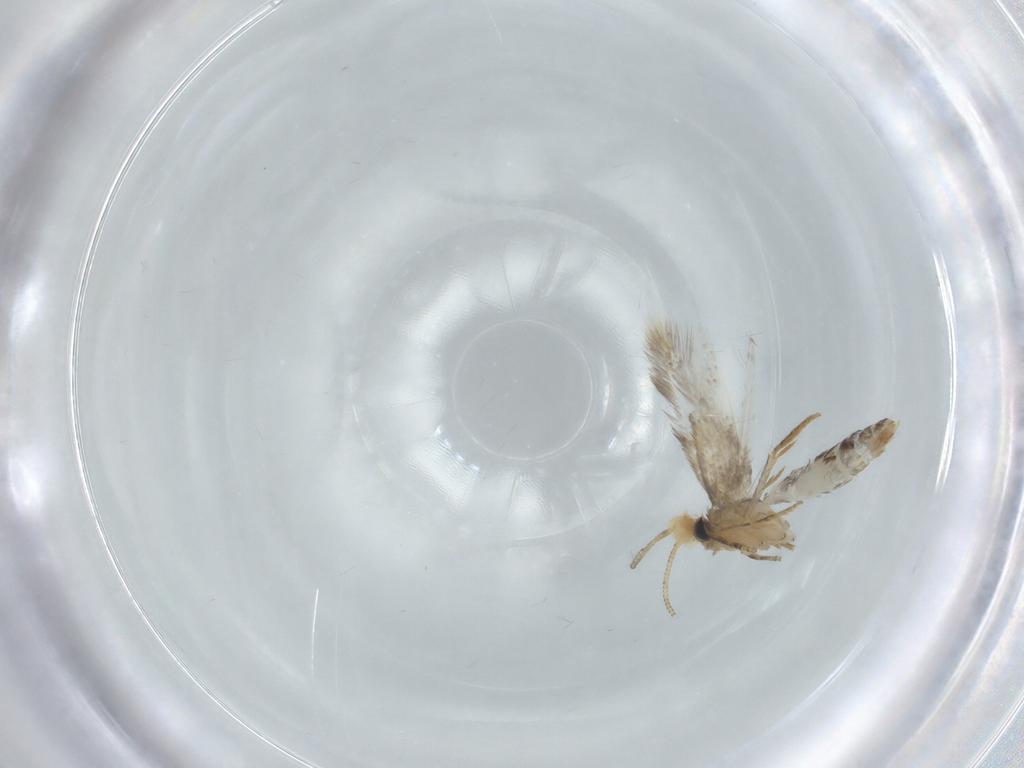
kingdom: Animalia
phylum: Arthropoda
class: Insecta
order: Lepidoptera
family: Nepticulidae
